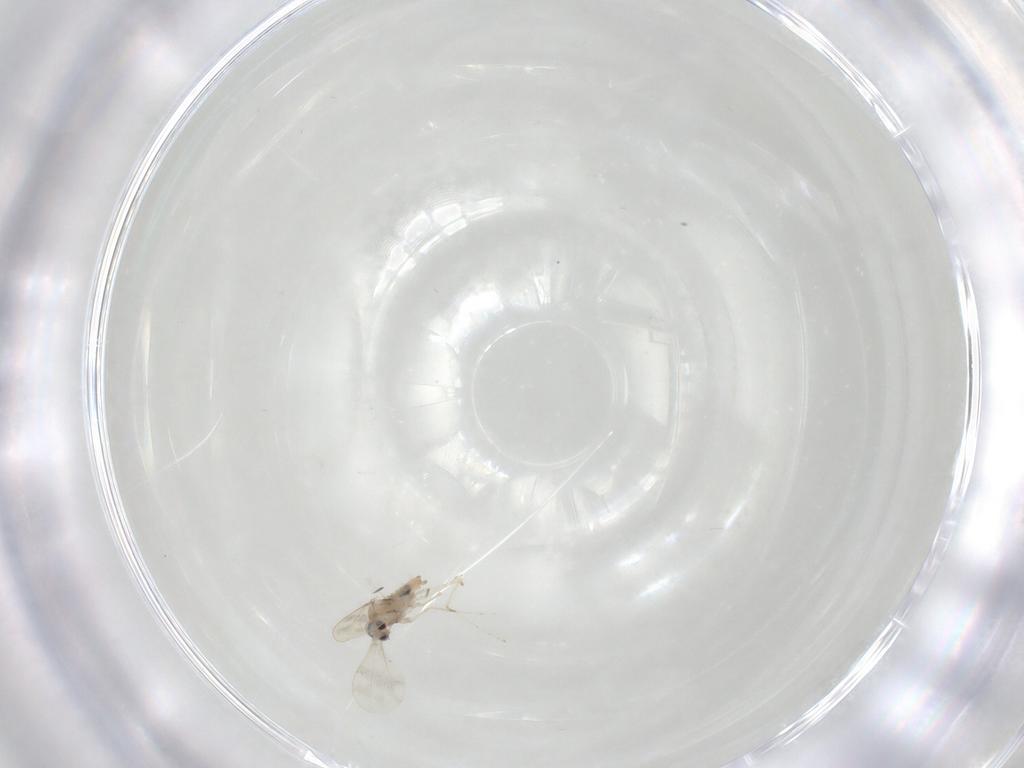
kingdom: Animalia
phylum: Arthropoda
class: Insecta
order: Diptera
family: Cecidomyiidae
